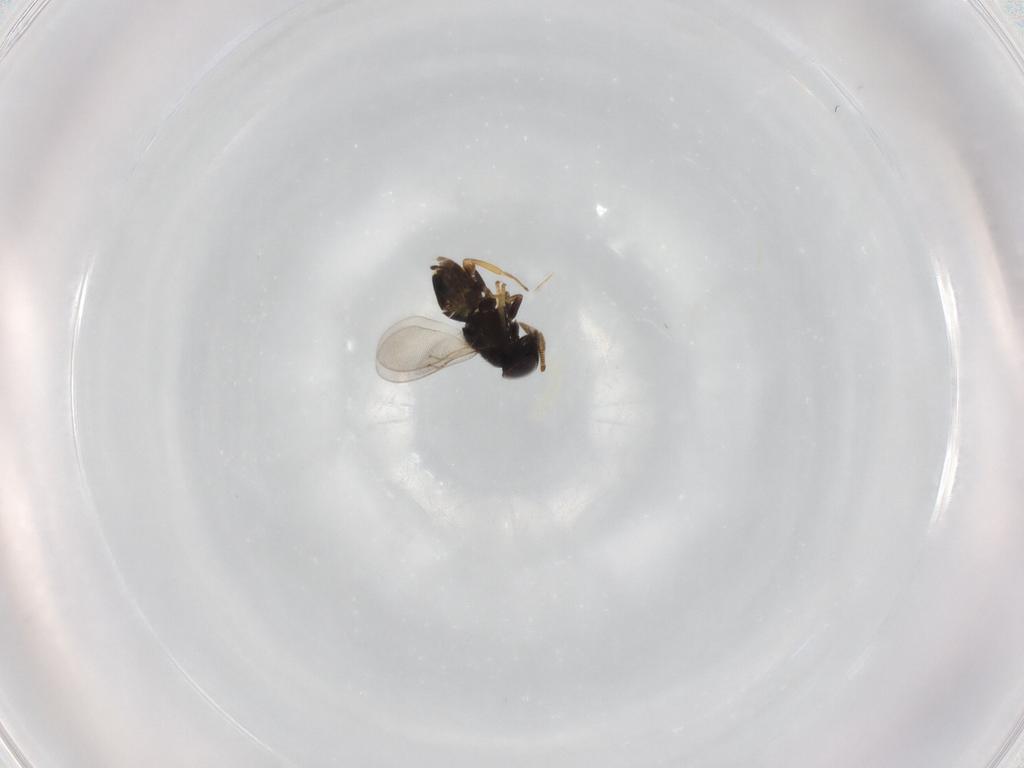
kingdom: Animalia
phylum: Arthropoda
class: Insecta
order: Hymenoptera
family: Encyrtidae
